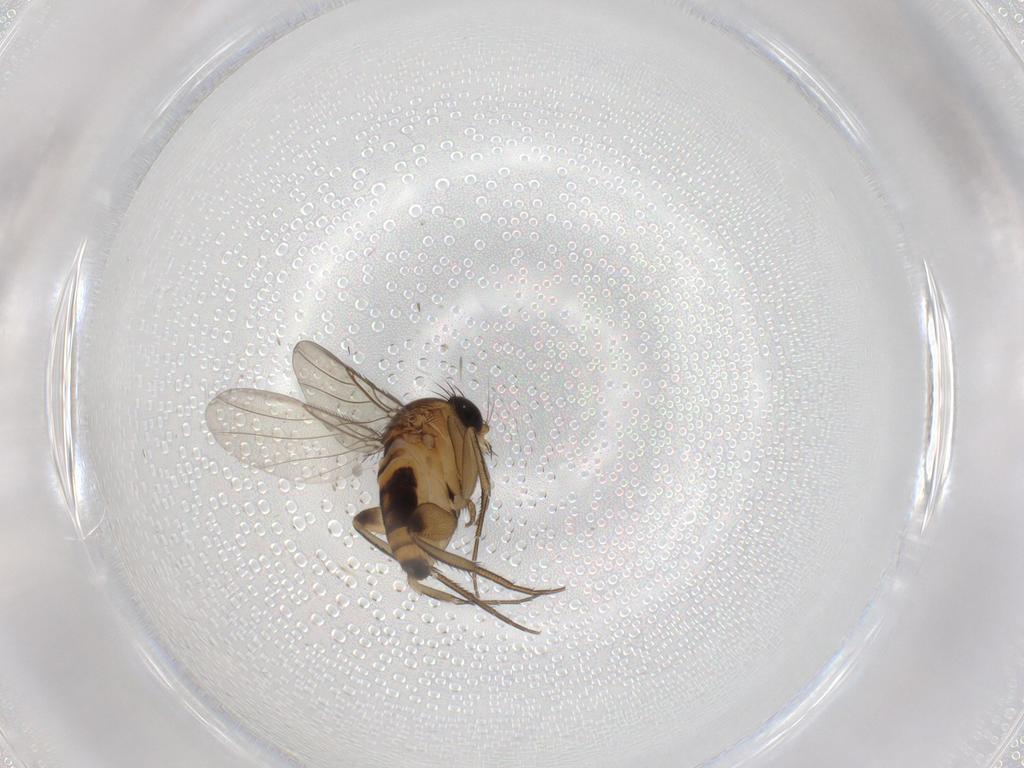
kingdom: Animalia
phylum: Arthropoda
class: Insecta
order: Diptera
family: Phoridae
